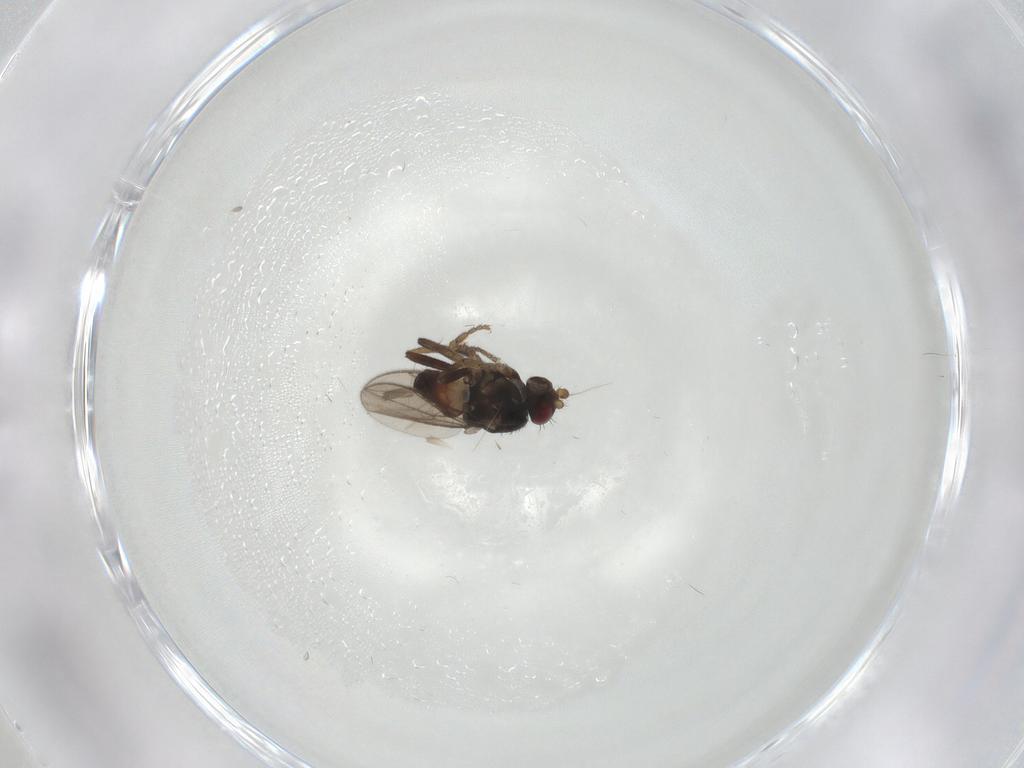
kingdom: Animalia
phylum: Arthropoda
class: Insecta
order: Diptera
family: Sphaeroceridae
